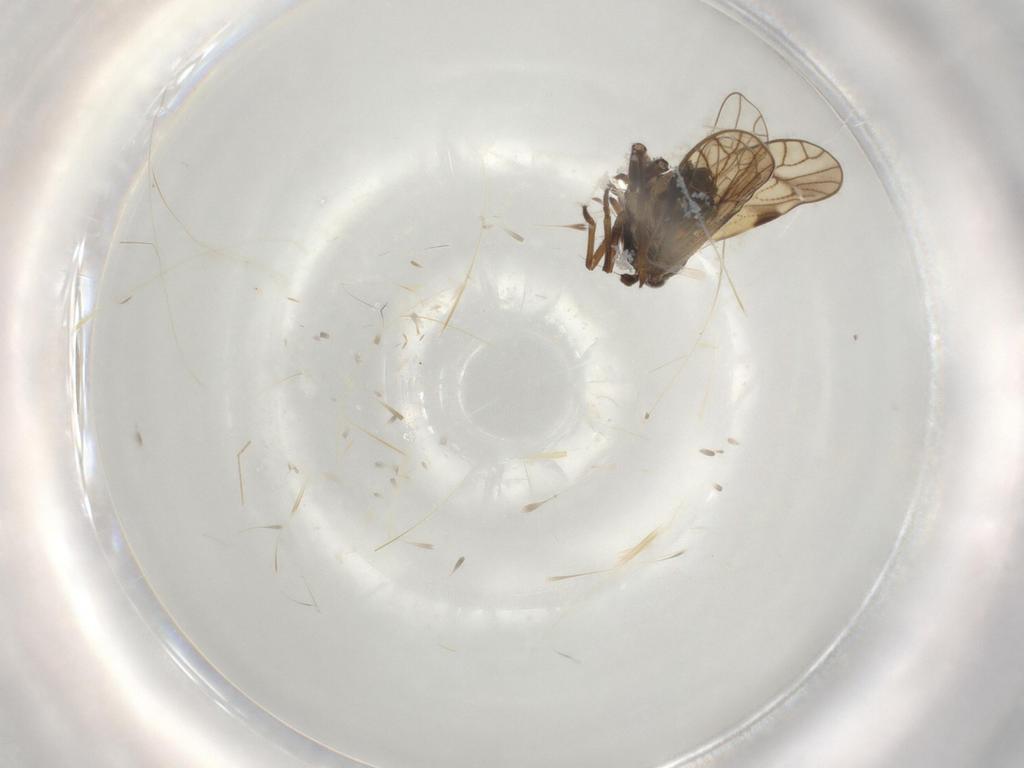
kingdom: Animalia
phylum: Arthropoda
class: Insecta
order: Hemiptera
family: Delphacidae
